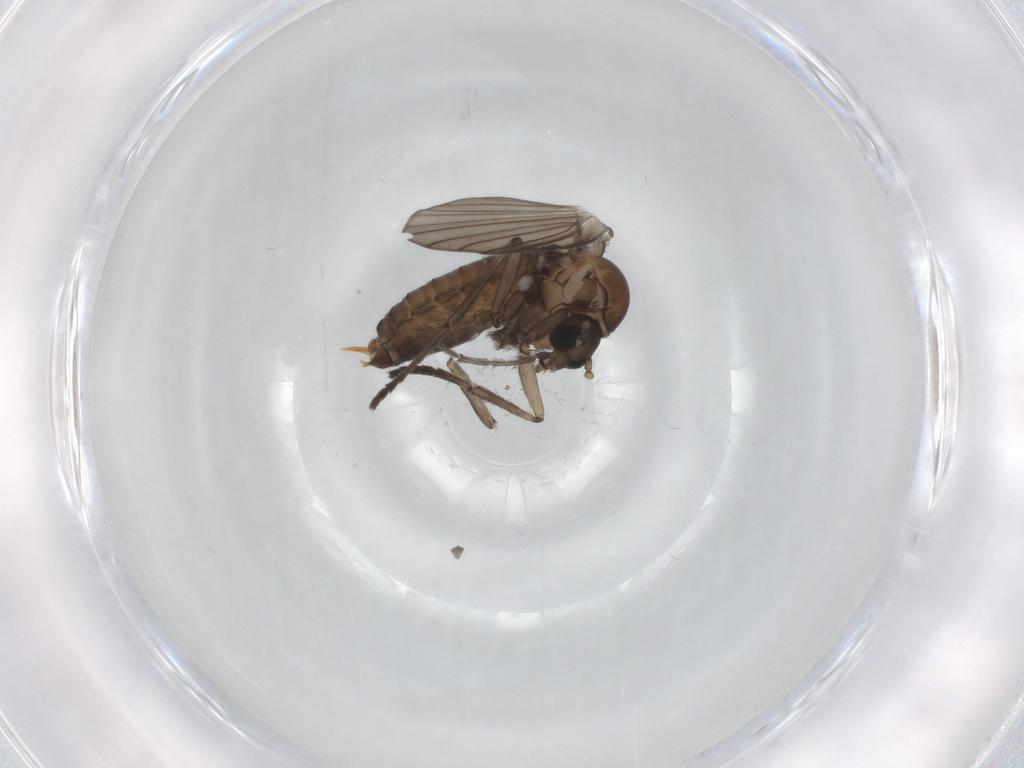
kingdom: Animalia
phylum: Arthropoda
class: Insecta
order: Diptera
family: Psychodidae
